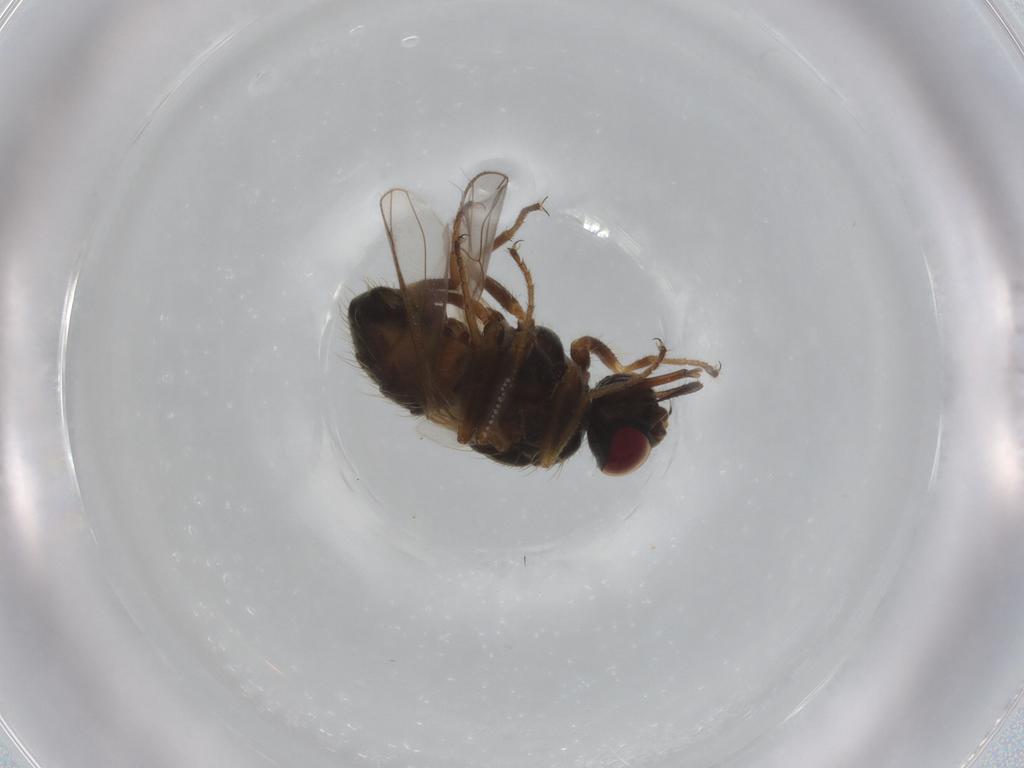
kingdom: Animalia
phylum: Arthropoda
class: Insecta
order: Diptera
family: Muscidae
